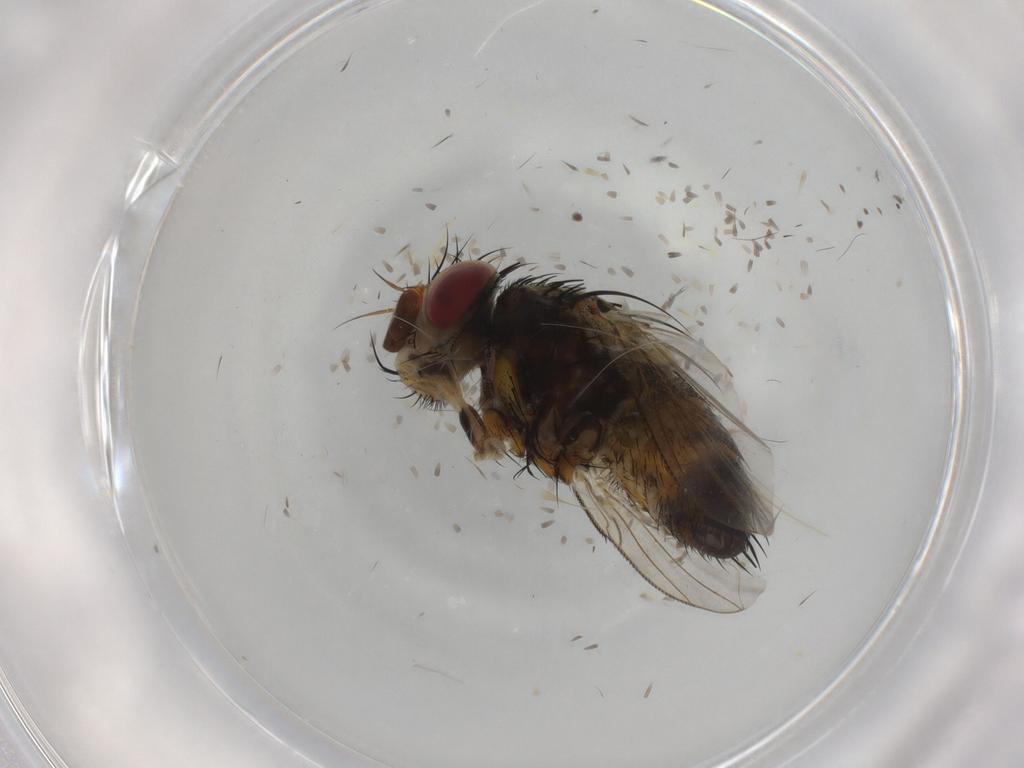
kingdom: Animalia
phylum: Arthropoda
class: Insecta
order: Diptera
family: Tachinidae
